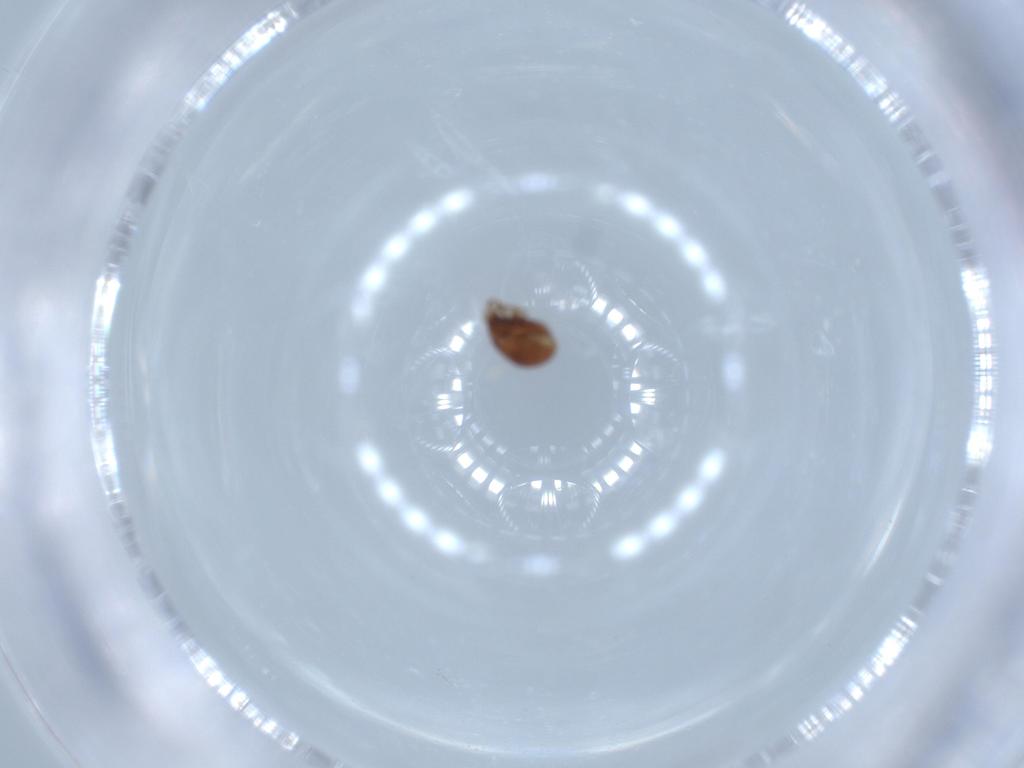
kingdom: Animalia
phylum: Arthropoda
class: Arachnida
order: Sarcoptiformes
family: Haplozetidae
